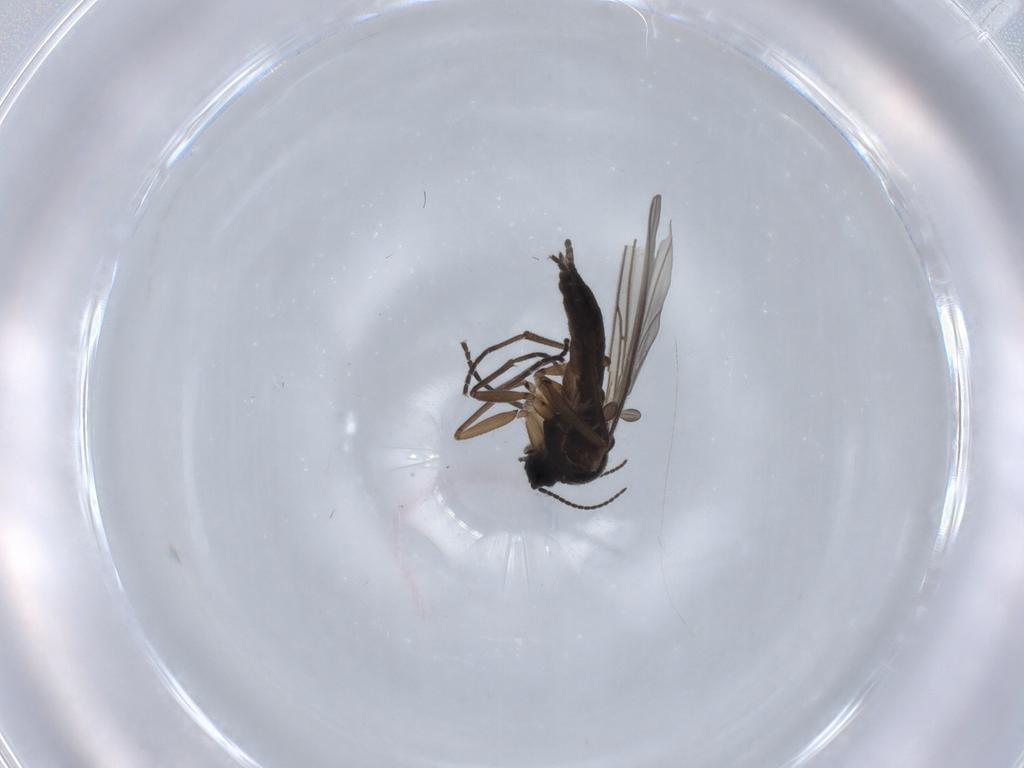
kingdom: Animalia
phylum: Arthropoda
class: Insecta
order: Diptera
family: Sciaridae
